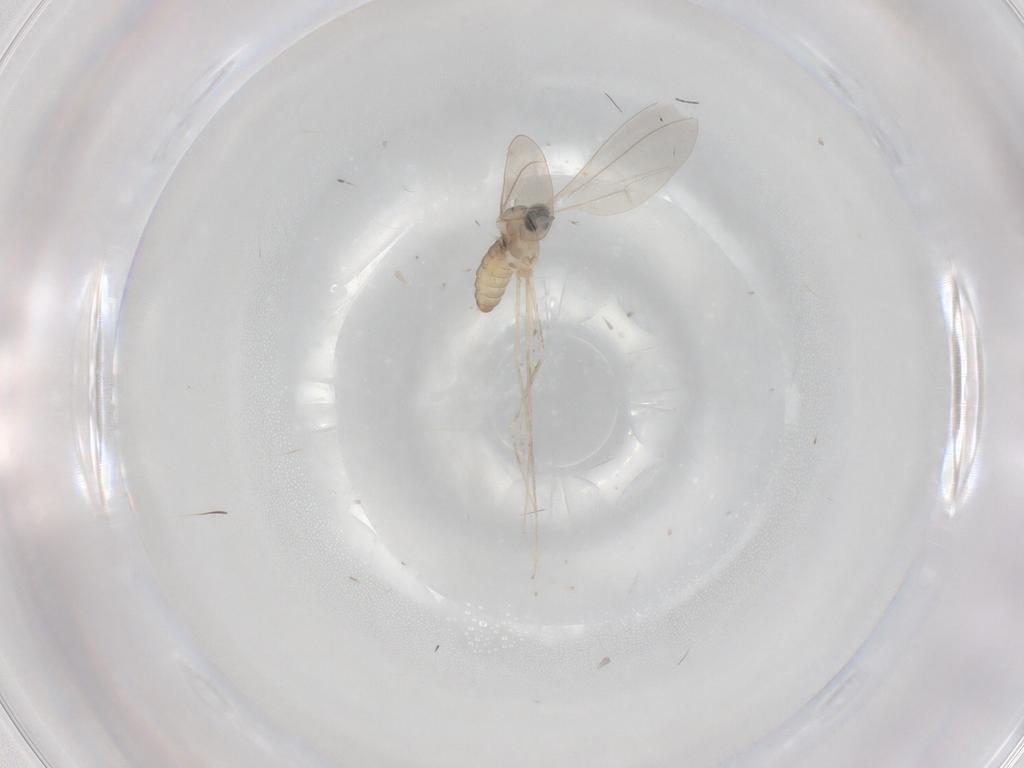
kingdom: Animalia
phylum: Arthropoda
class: Insecta
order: Diptera
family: Cecidomyiidae
